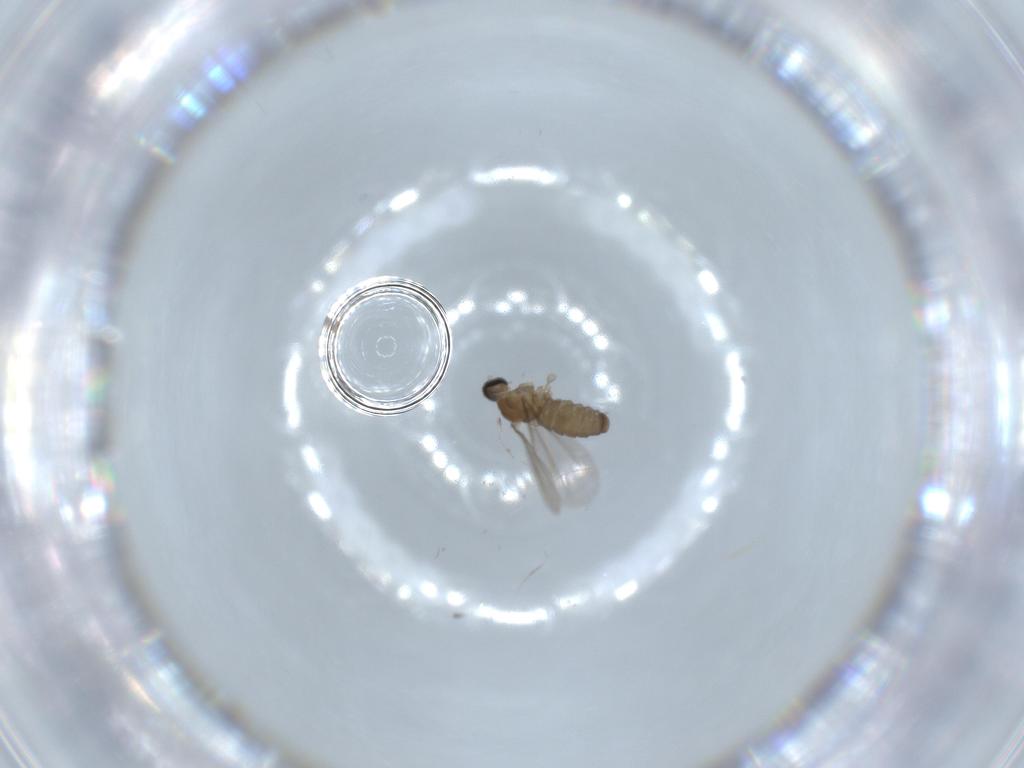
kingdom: Animalia
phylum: Arthropoda
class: Insecta
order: Diptera
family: Cecidomyiidae
